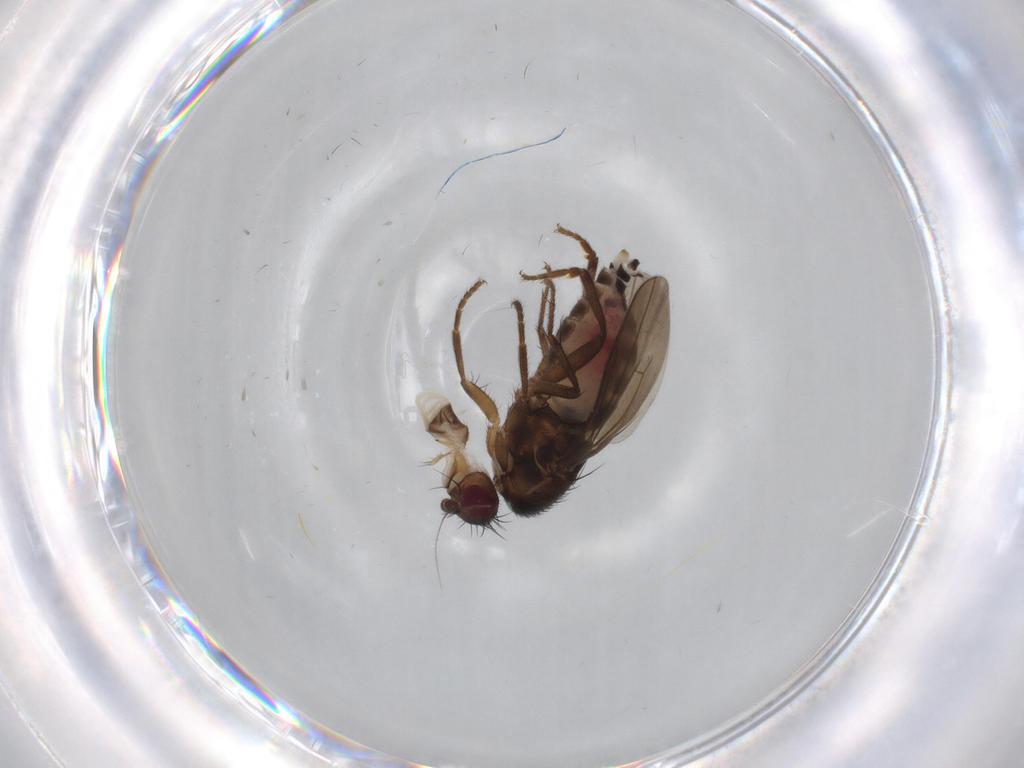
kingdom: Animalia
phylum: Arthropoda
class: Insecta
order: Diptera
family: Sphaeroceridae
